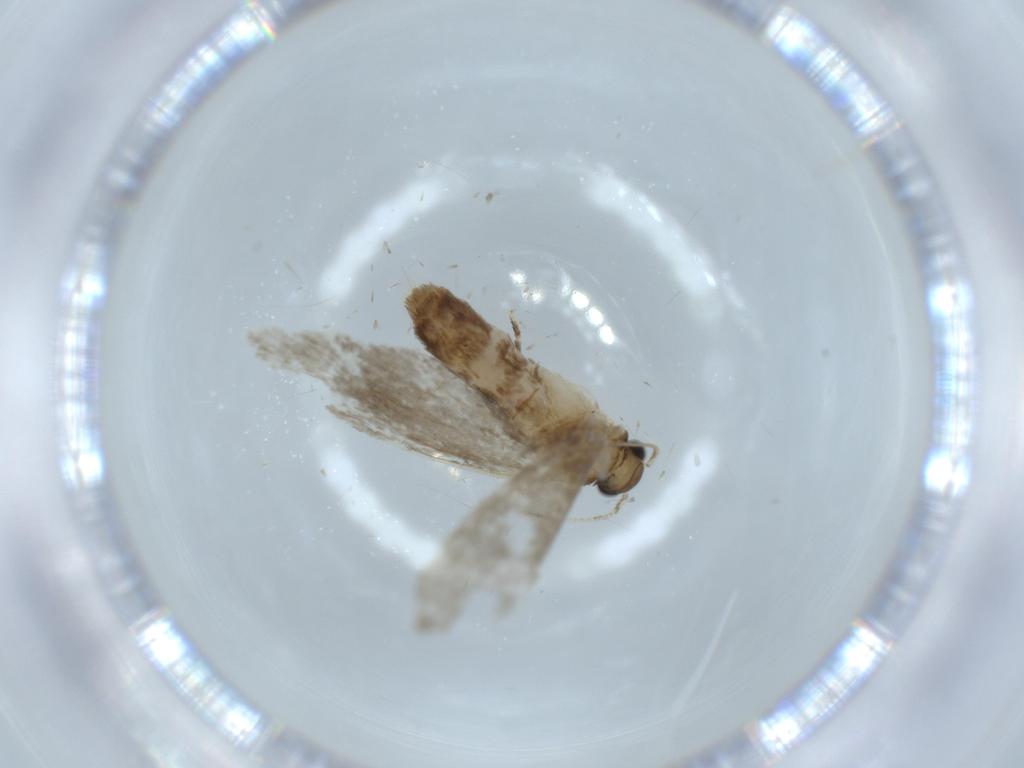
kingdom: Animalia
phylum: Arthropoda
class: Insecta
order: Lepidoptera
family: Tineidae
